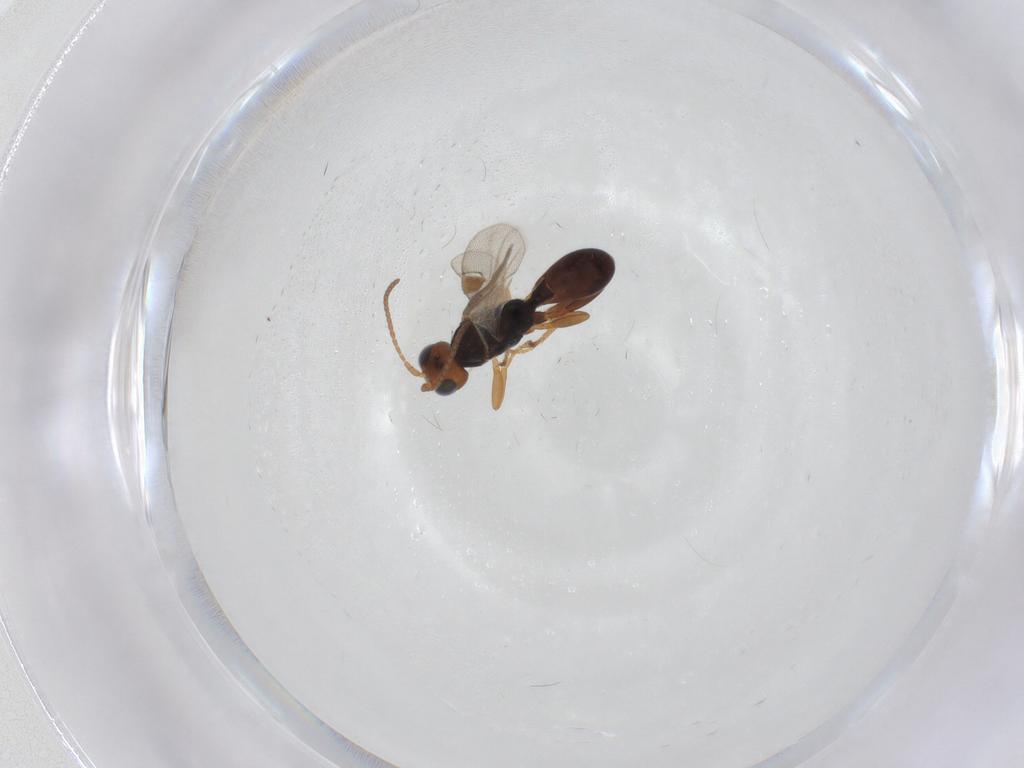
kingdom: Animalia
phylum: Arthropoda
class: Insecta
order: Hymenoptera
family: Braconidae
